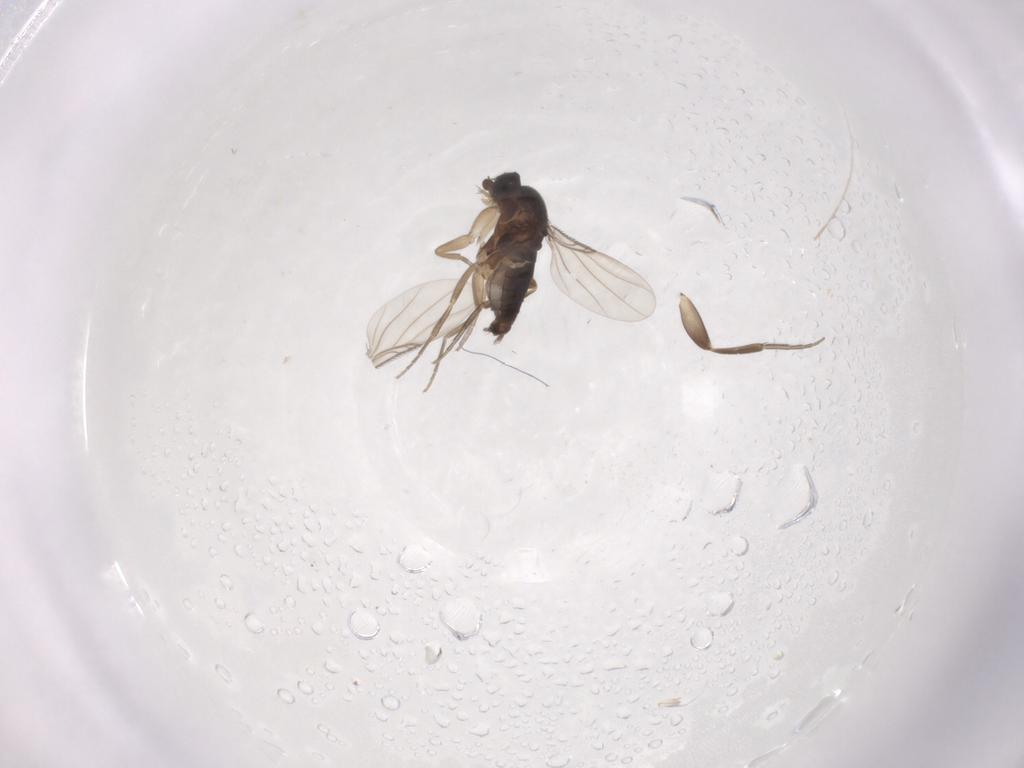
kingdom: Animalia
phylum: Arthropoda
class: Insecta
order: Diptera
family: Phoridae
